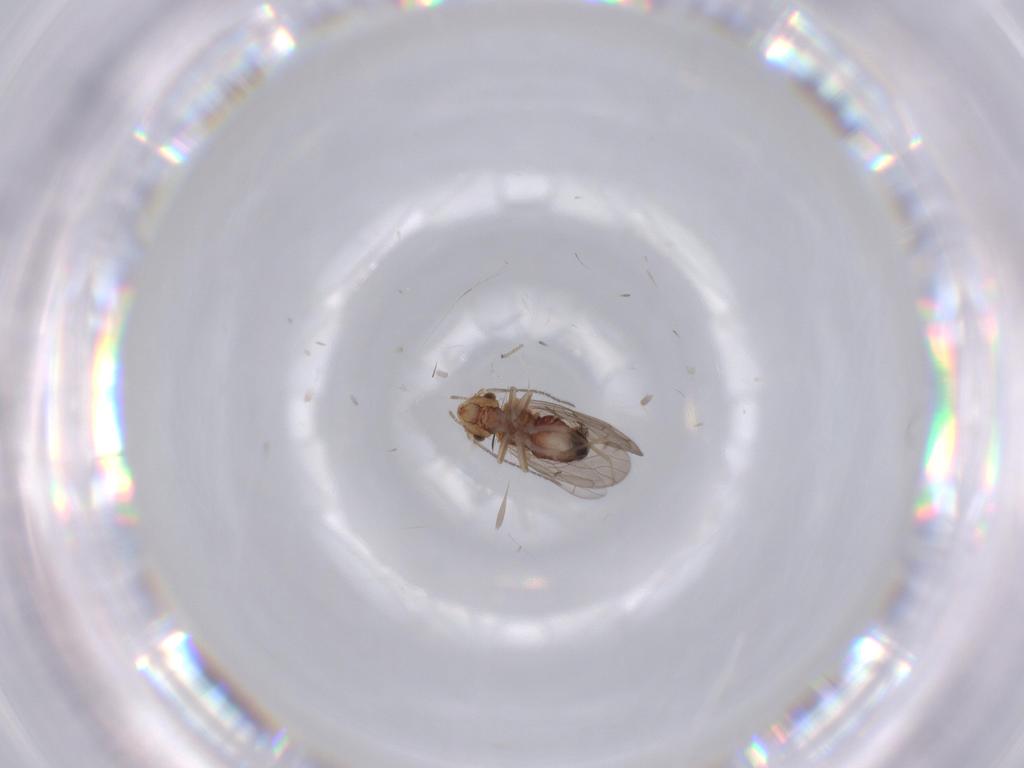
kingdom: Animalia
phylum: Arthropoda
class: Insecta
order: Psocodea
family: Ectopsocidae
